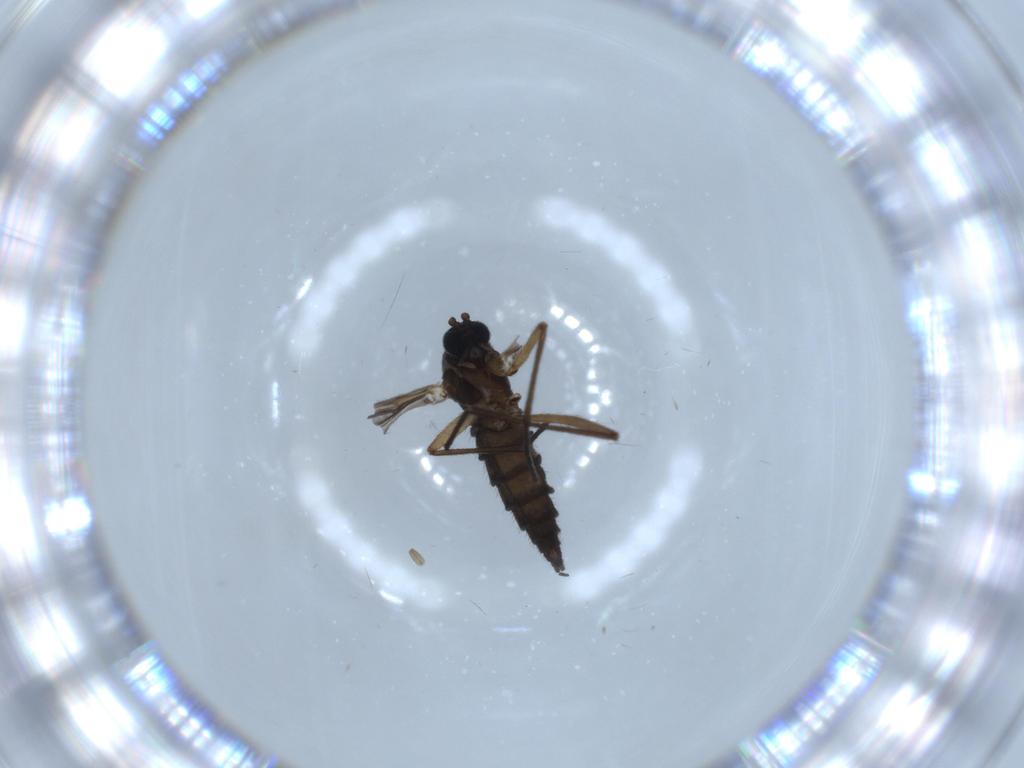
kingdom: Animalia
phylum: Arthropoda
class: Insecta
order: Diptera
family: Sciaridae
